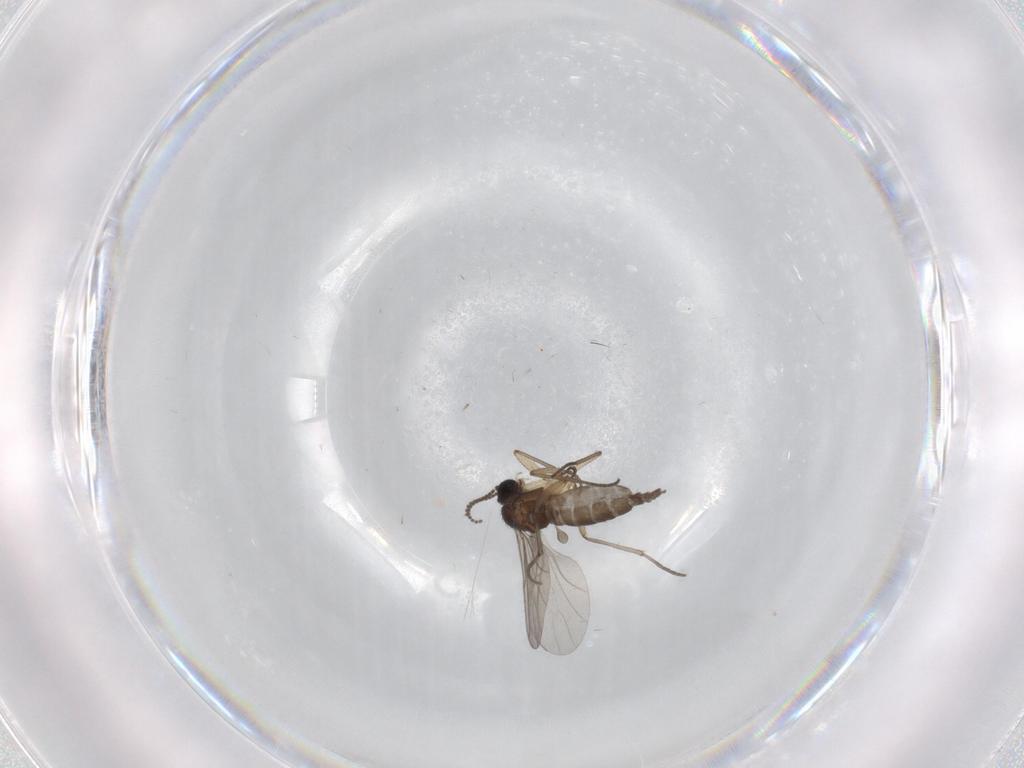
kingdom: Animalia
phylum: Arthropoda
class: Insecta
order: Diptera
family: Sciaridae
